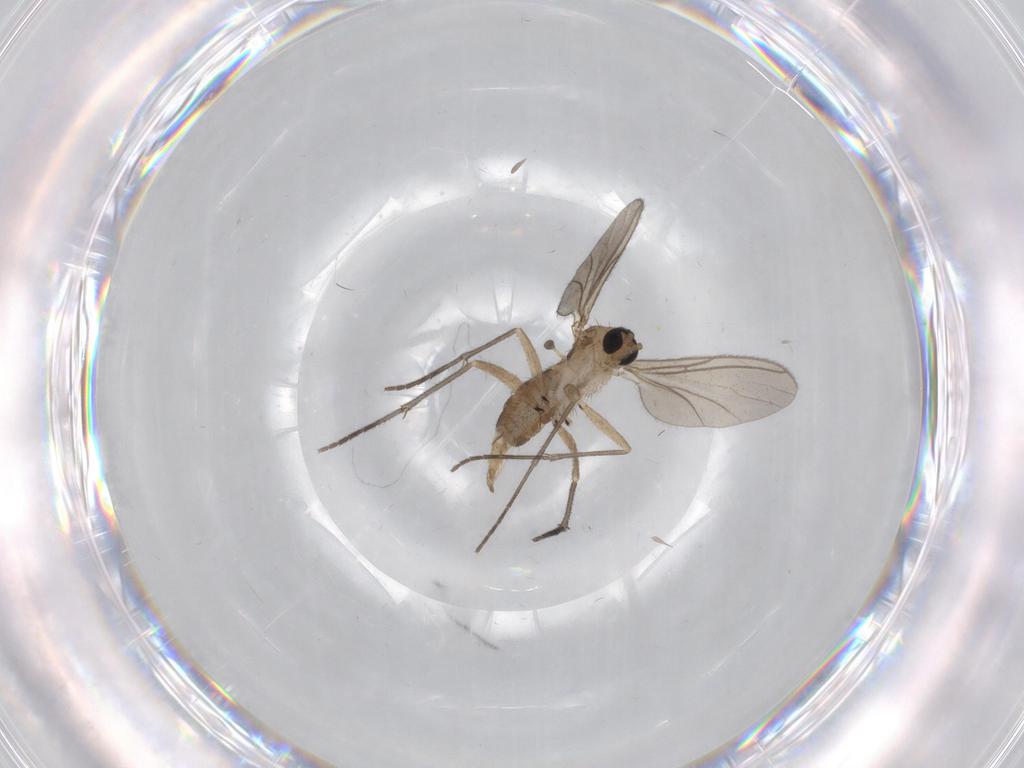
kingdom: Animalia
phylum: Arthropoda
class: Insecta
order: Diptera
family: Sciaridae
